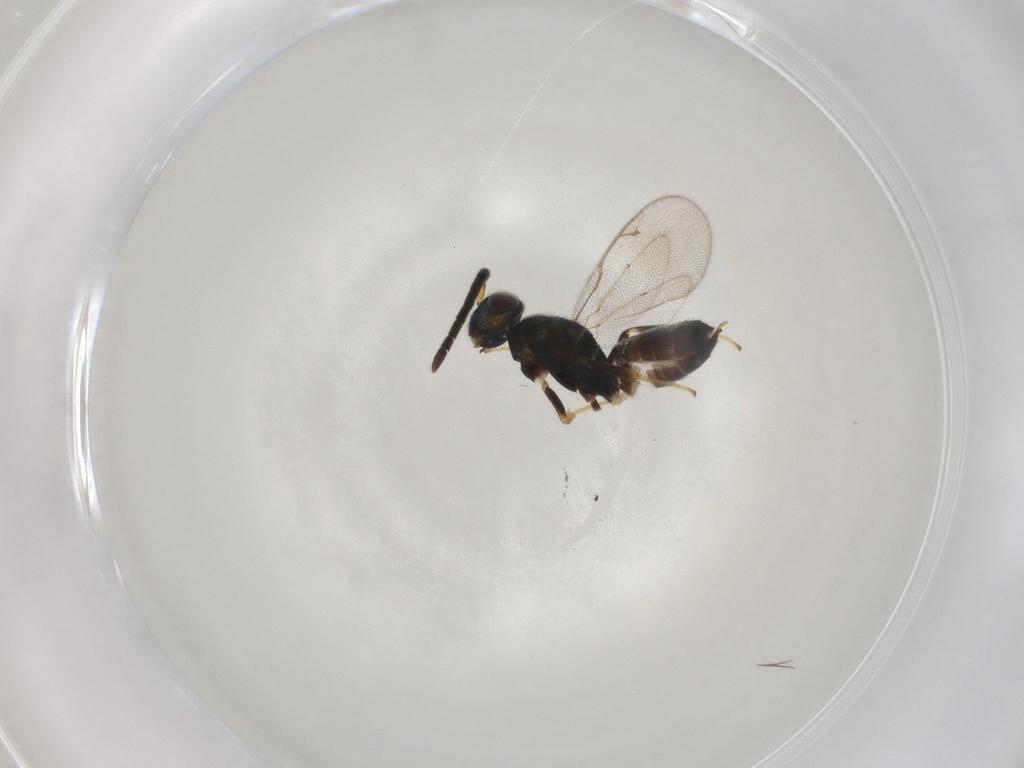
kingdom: Animalia
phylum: Arthropoda
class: Insecta
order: Hymenoptera
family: Eupelmidae
